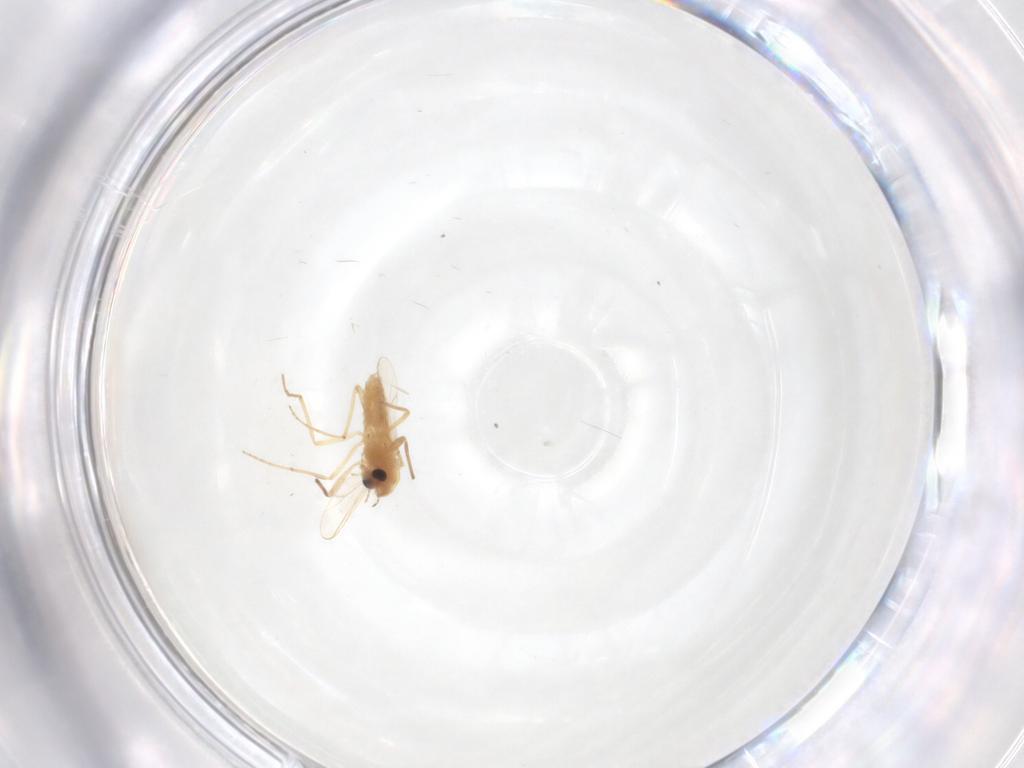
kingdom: Animalia
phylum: Arthropoda
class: Insecta
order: Diptera
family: Chironomidae
